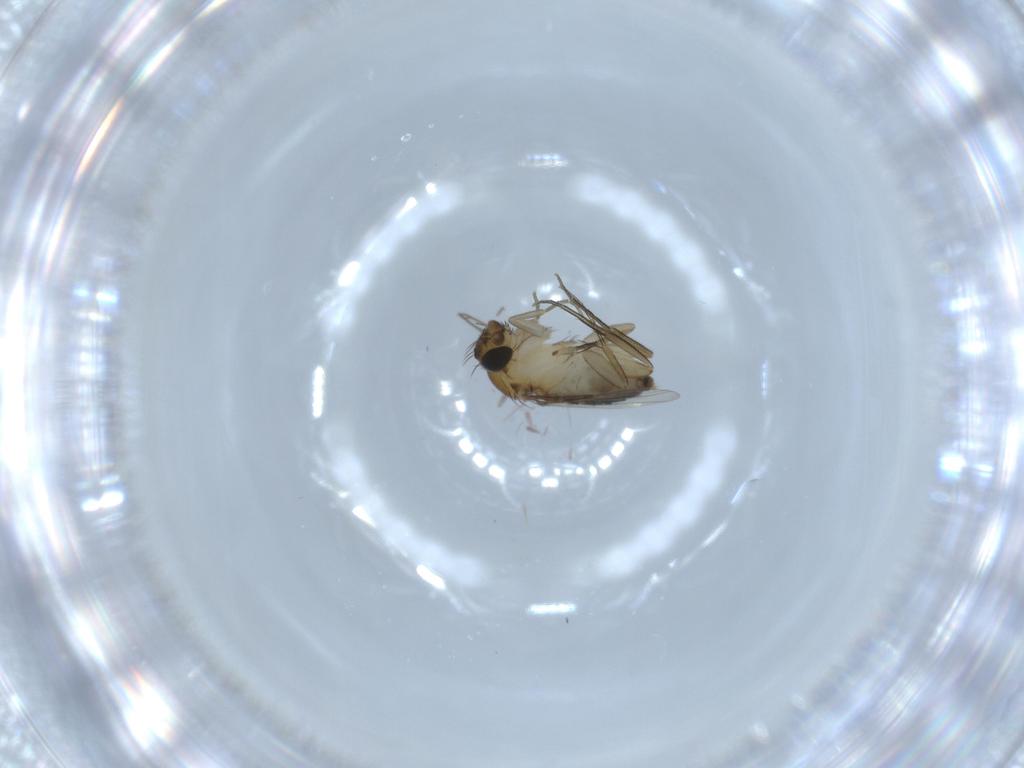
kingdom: Animalia
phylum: Arthropoda
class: Insecta
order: Diptera
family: Phoridae
